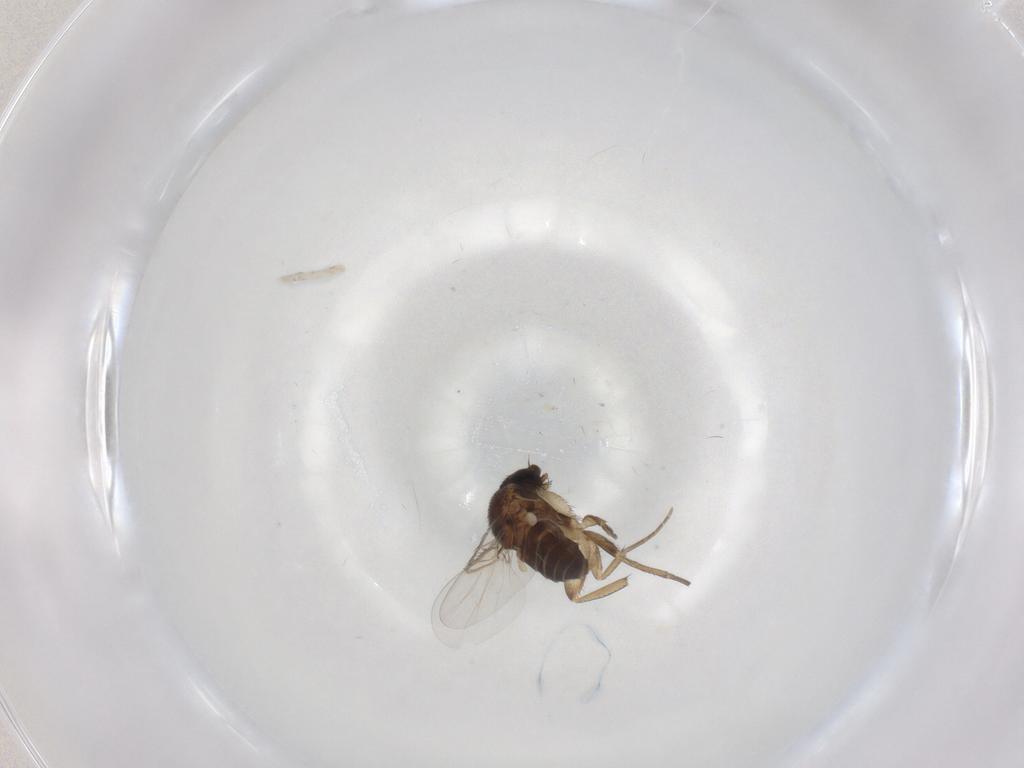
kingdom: Animalia
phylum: Arthropoda
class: Insecta
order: Diptera
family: Phoridae
